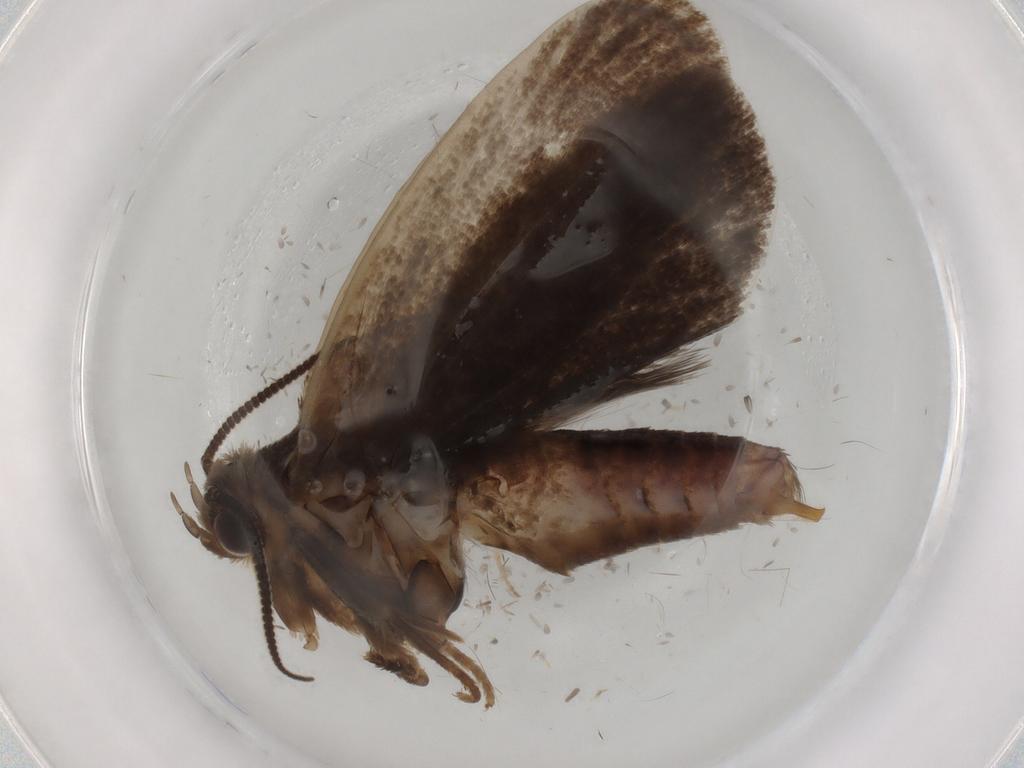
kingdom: Animalia
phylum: Arthropoda
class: Insecta
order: Lepidoptera
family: Tineidae
